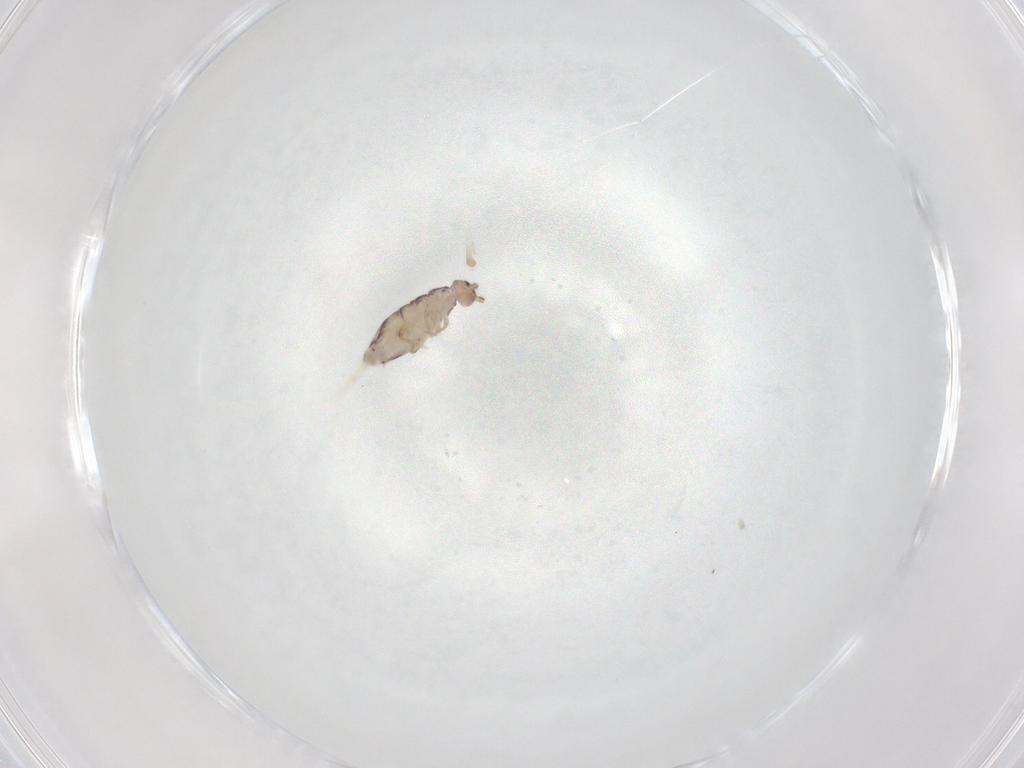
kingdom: Animalia
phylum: Arthropoda
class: Collembola
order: Entomobryomorpha
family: Entomobryidae
